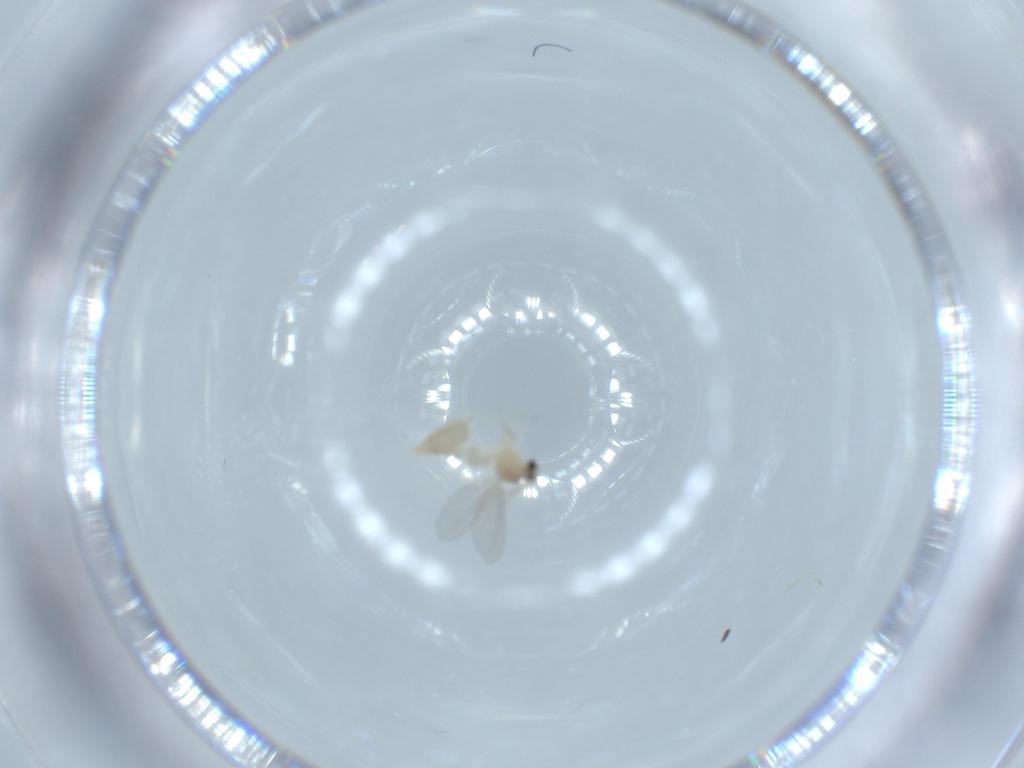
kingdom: Animalia
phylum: Arthropoda
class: Insecta
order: Diptera
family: Cecidomyiidae
